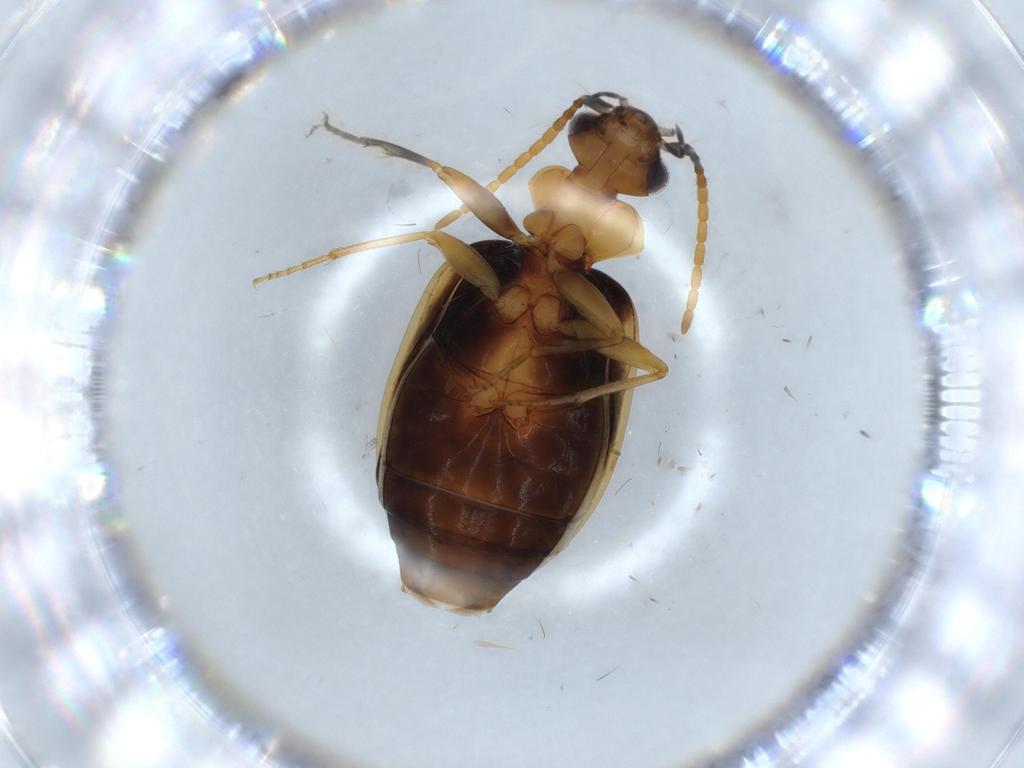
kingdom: Animalia
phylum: Arthropoda
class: Insecta
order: Coleoptera
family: Carabidae
